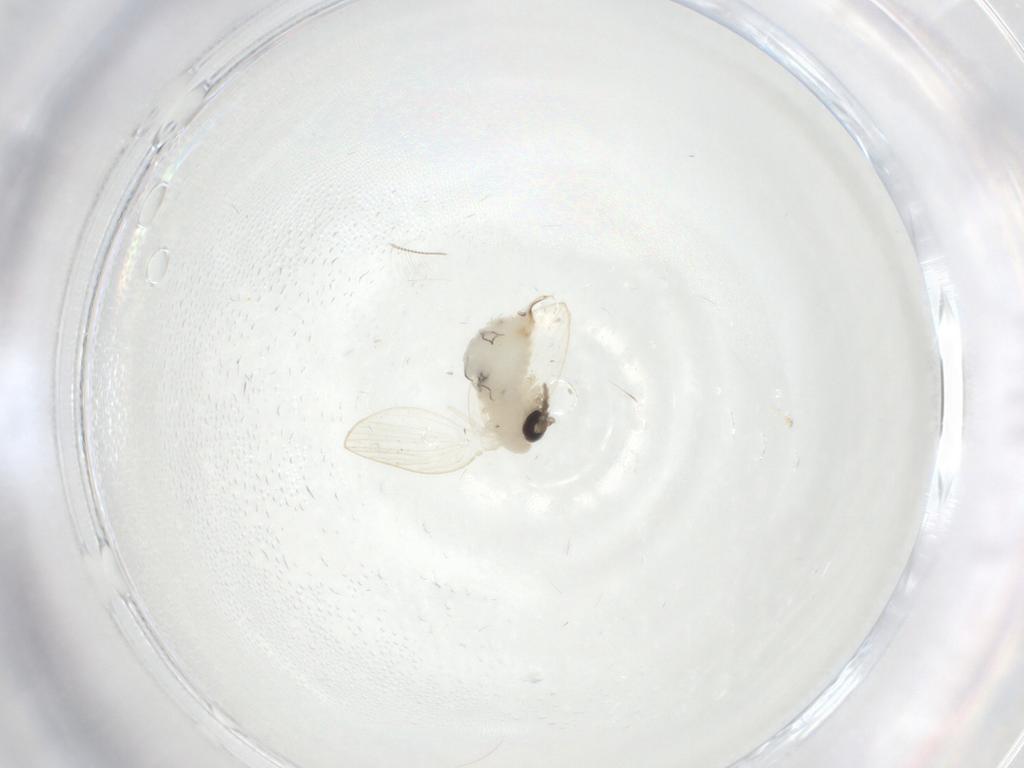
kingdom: Animalia
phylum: Arthropoda
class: Insecta
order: Diptera
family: Psychodidae
